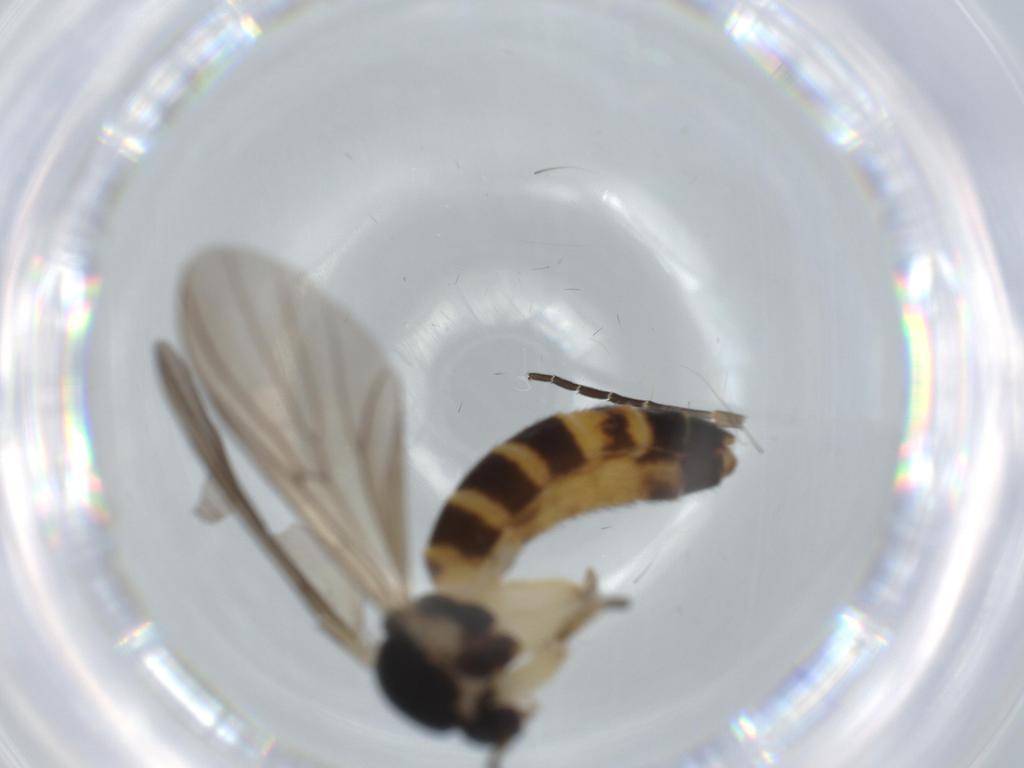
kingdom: Animalia
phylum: Arthropoda
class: Insecta
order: Diptera
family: Mycetophilidae
